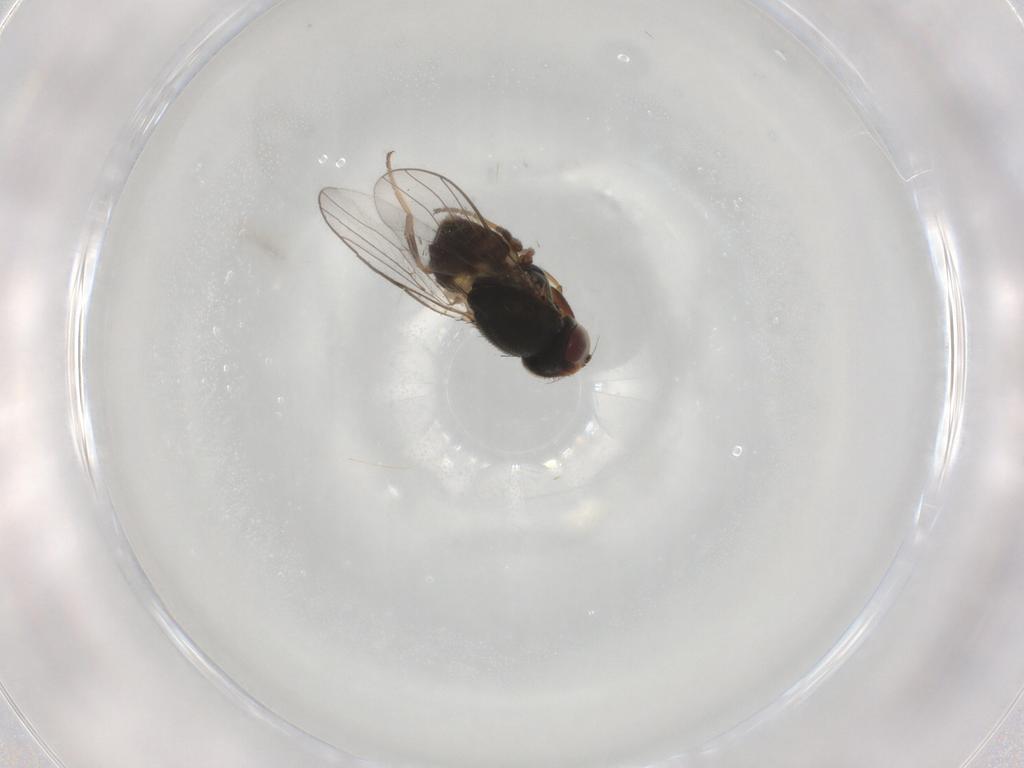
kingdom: Animalia
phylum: Arthropoda
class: Insecta
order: Diptera
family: Chloropidae
